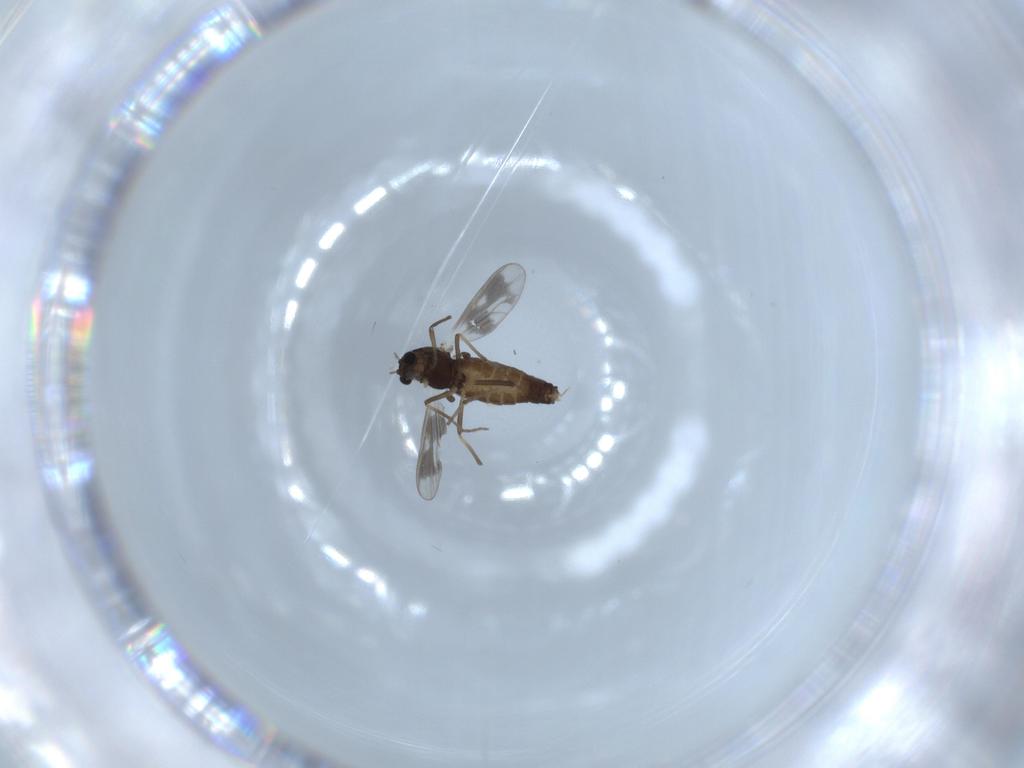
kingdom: Animalia
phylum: Arthropoda
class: Insecta
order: Diptera
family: Chironomidae
